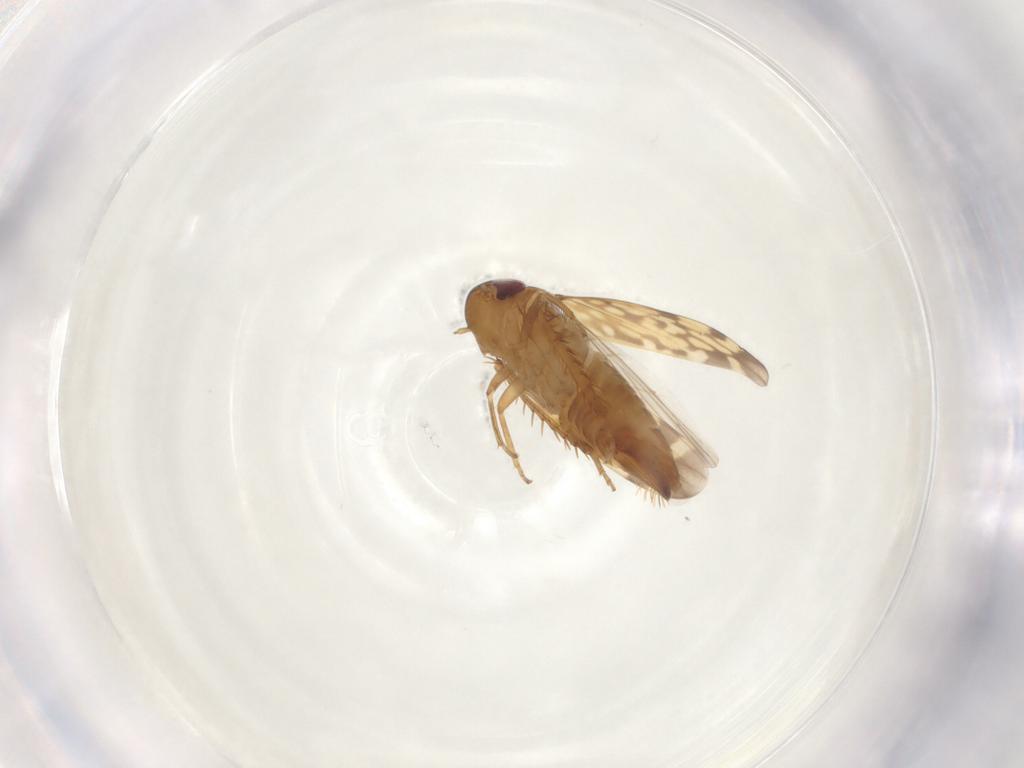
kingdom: Animalia
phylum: Arthropoda
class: Insecta
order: Hemiptera
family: Cicadellidae
